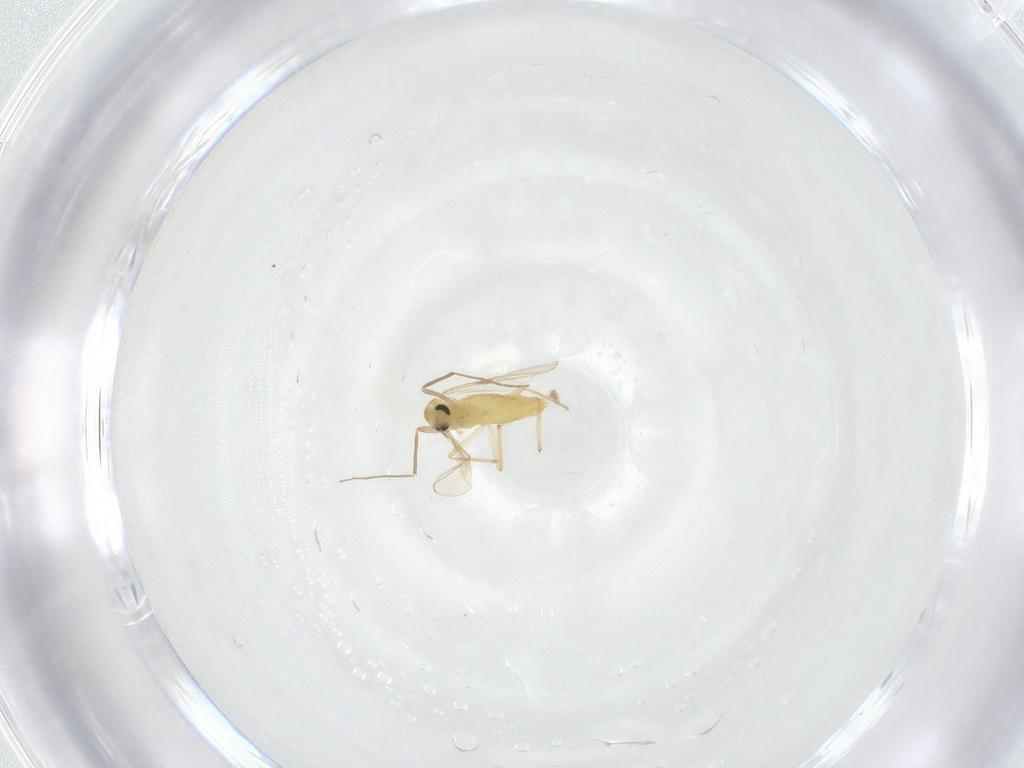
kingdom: Animalia
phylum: Arthropoda
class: Insecta
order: Diptera
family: Chironomidae
